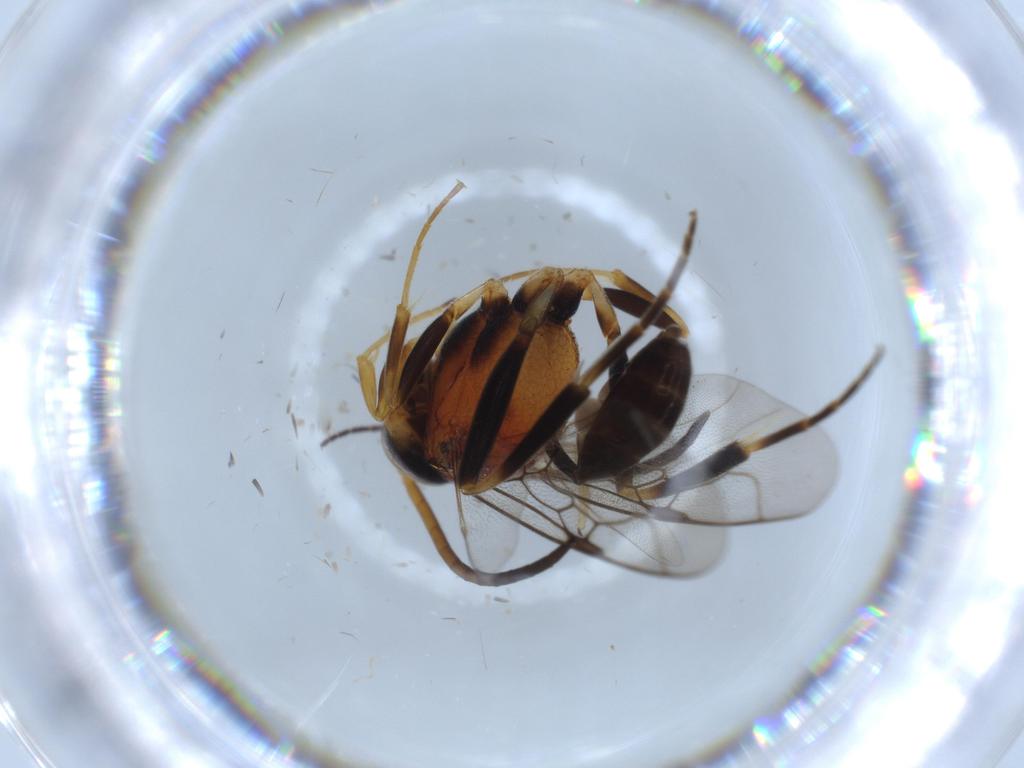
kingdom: Animalia
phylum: Arthropoda
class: Insecta
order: Hymenoptera
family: Evaniidae
